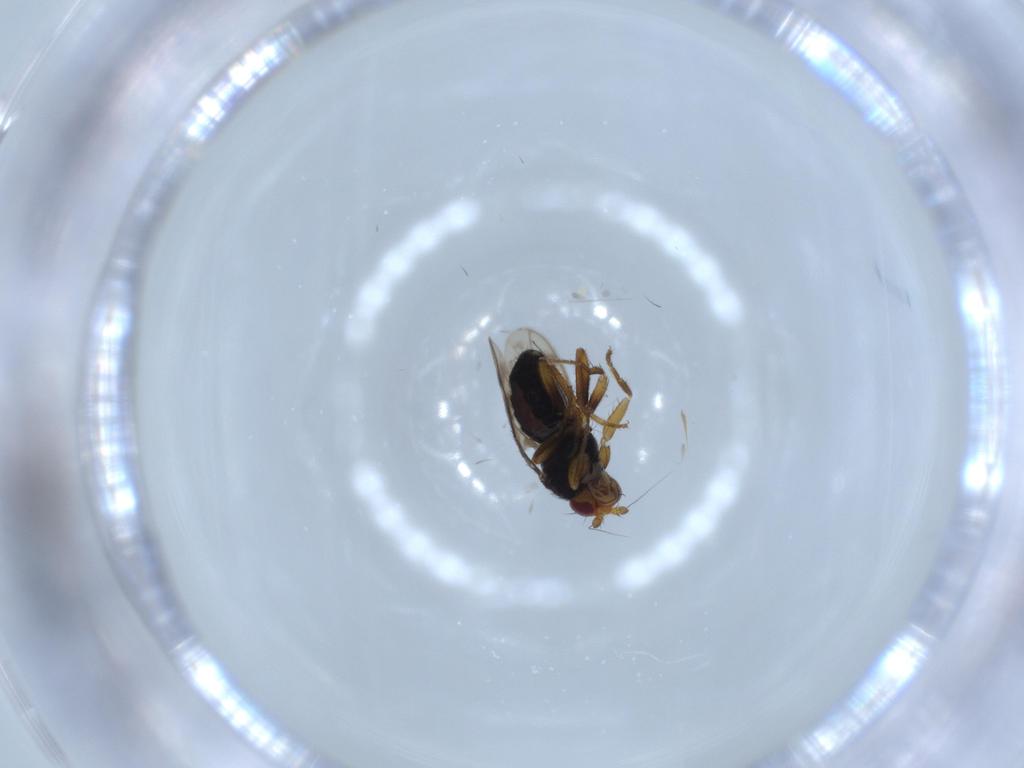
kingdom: Animalia
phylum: Arthropoda
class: Insecta
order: Diptera
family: Sphaeroceridae
